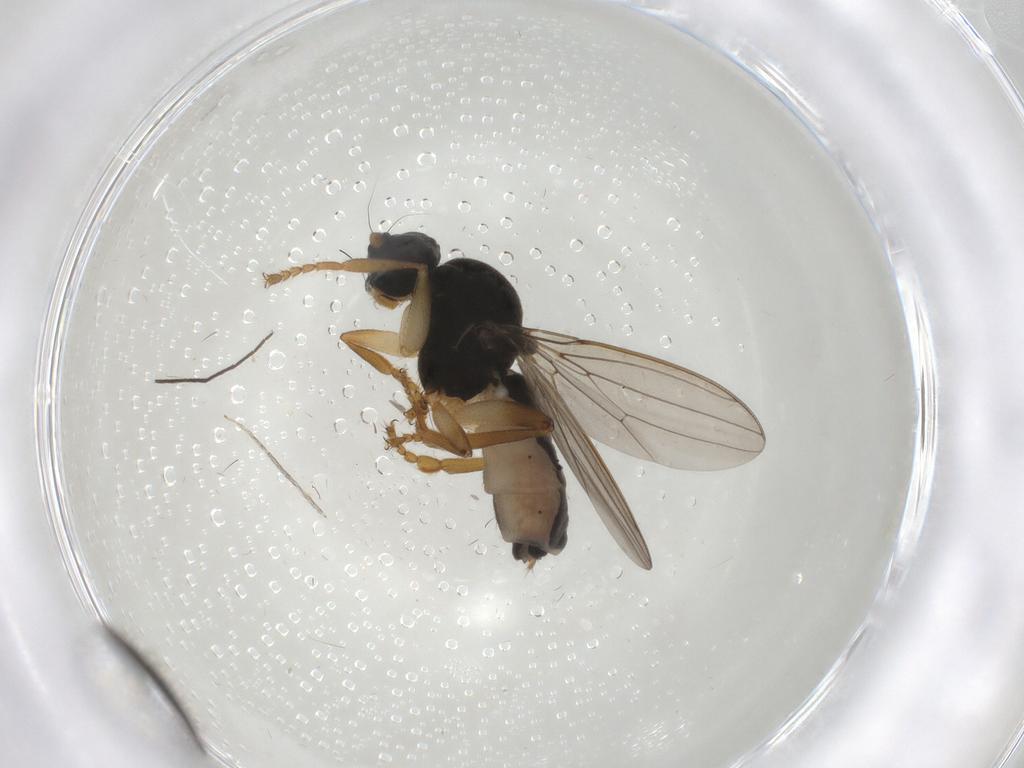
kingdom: Animalia
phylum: Arthropoda
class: Insecta
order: Diptera
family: Sphaeroceridae
